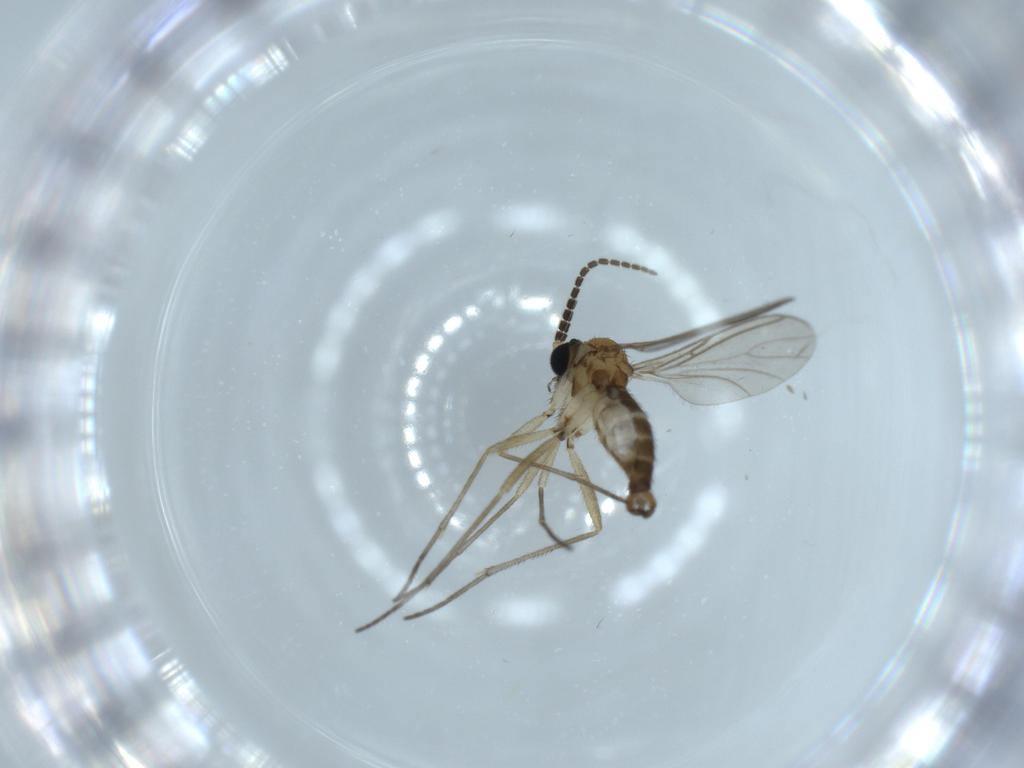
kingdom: Animalia
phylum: Arthropoda
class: Insecta
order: Diptera
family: Sciaridae
